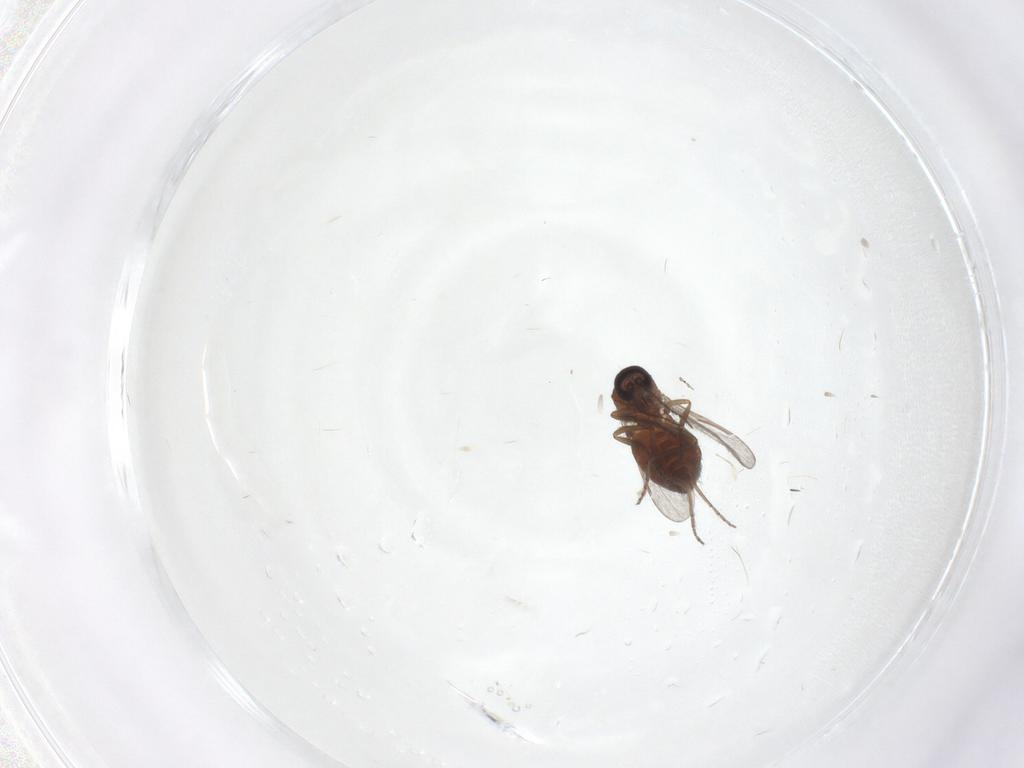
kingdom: Animalia
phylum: Arthropoda
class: Insecta
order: Diptera
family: Ceratopogonidae
